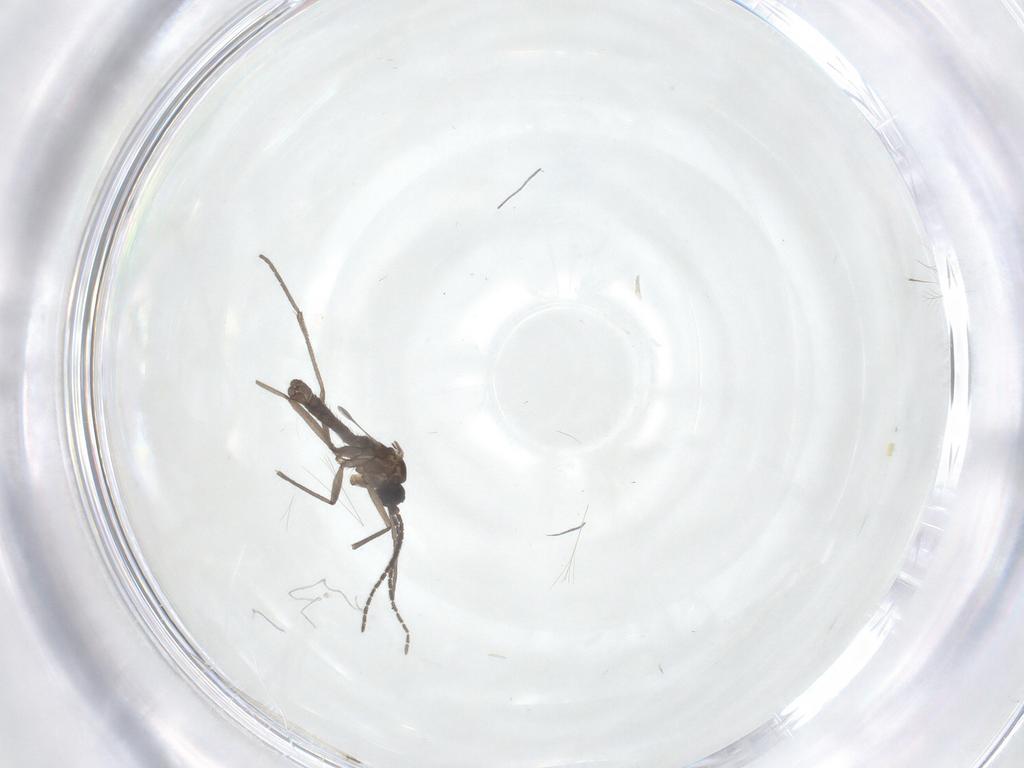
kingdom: Animalia
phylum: Arthropoda
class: Insecta
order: Diptera
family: Sciaridae
